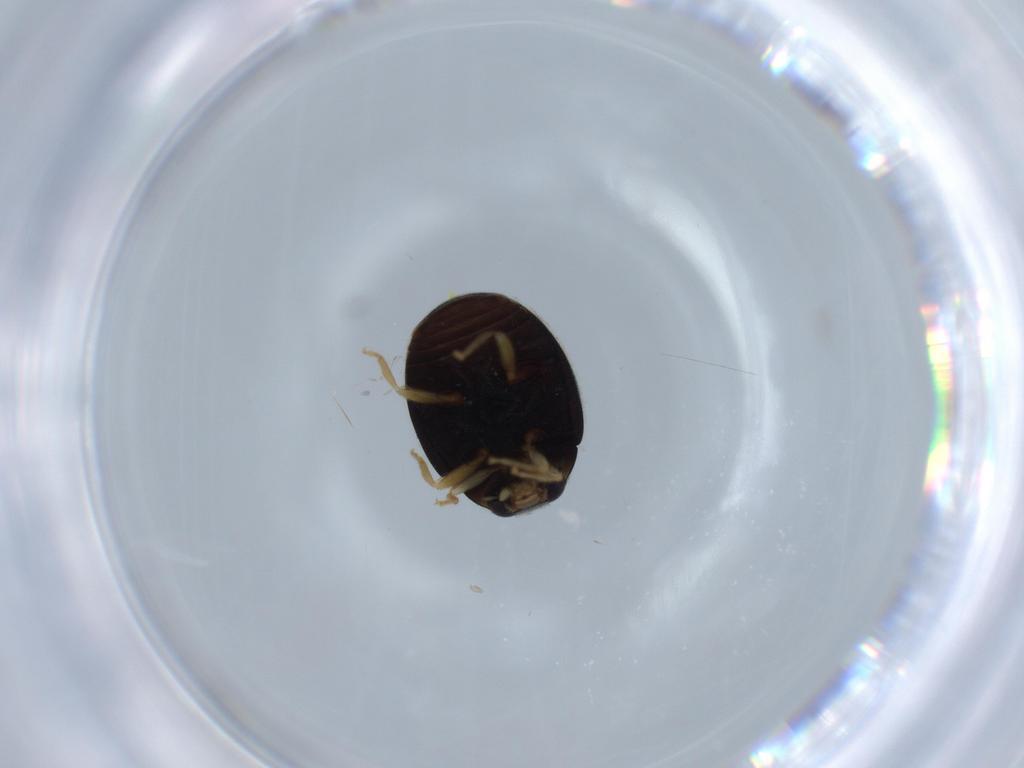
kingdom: Animalia
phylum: Arthropoda
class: Insecta
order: Coleoptera
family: Coccinellidae
